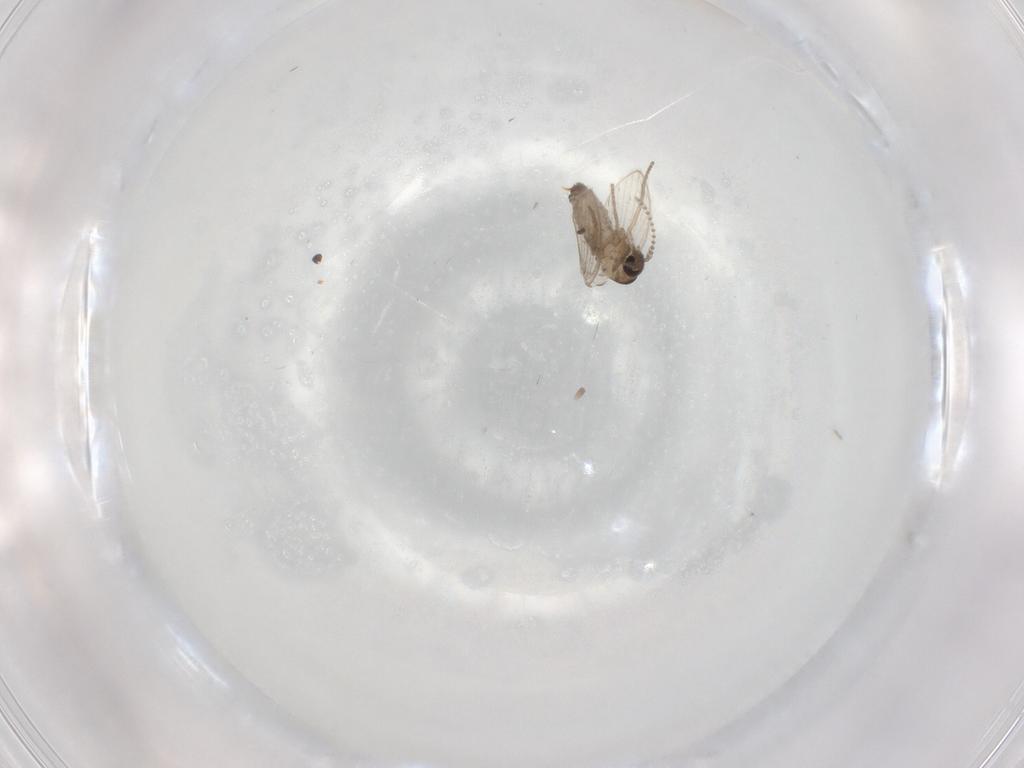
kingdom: Animalia
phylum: Arthropoda
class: Insecta
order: Diptera
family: Psychodidae
